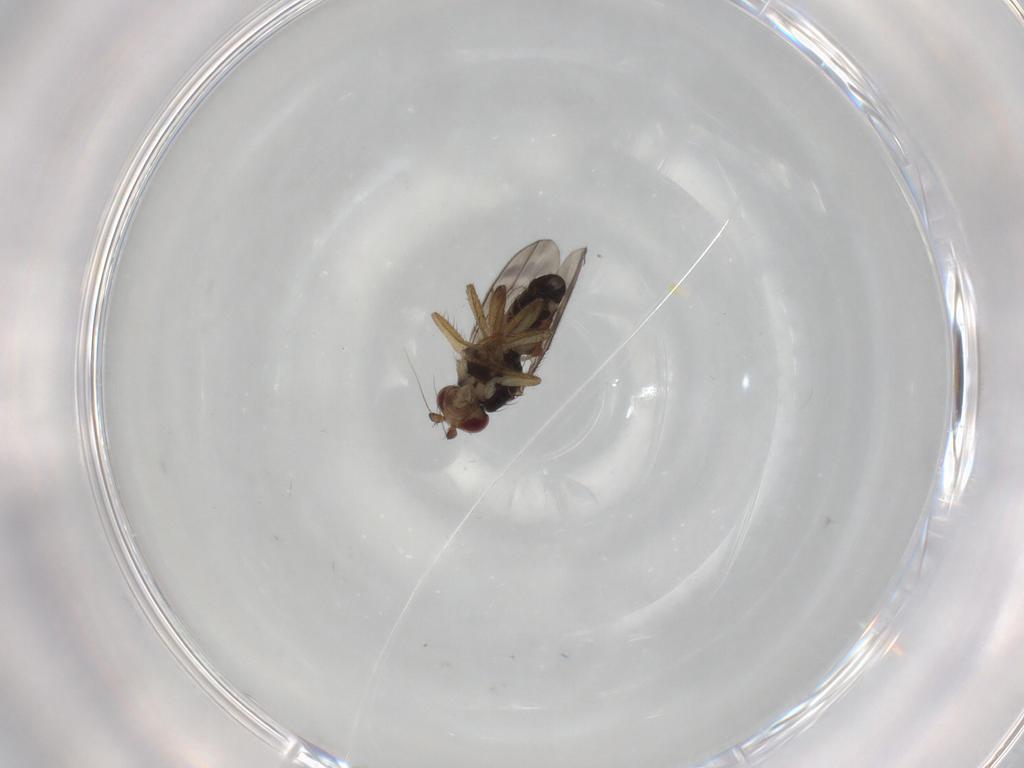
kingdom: Animalia
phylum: Arthropoda
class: Insecta
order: Diptera
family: Sphaeroceridae
